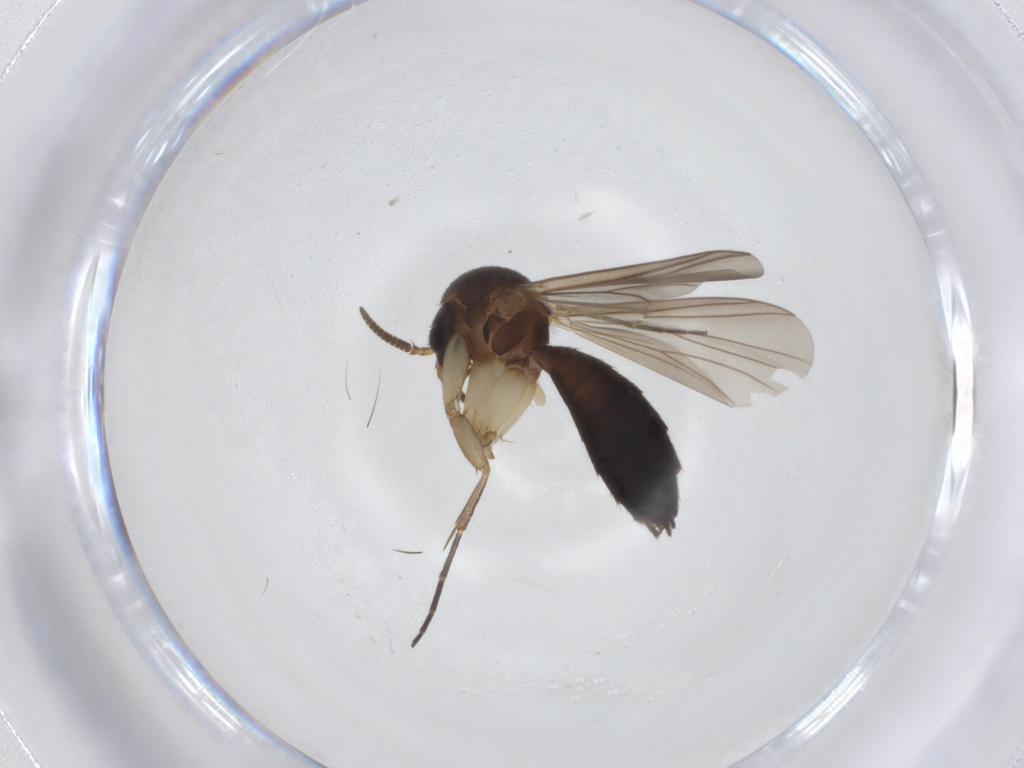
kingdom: Animalia
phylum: Arthropoda
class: Insecta
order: Diptera
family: Mycetophilidae
